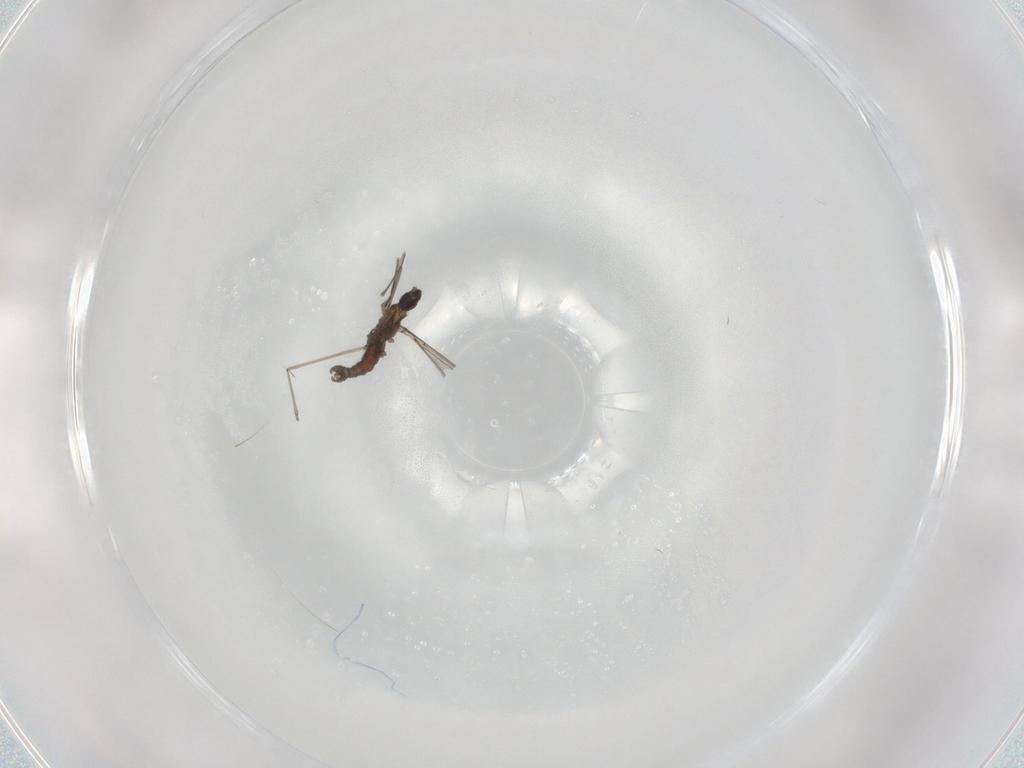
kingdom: Animalia
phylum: Arthropoda
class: Insecta
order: Diptera
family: Cecidomyiidae
